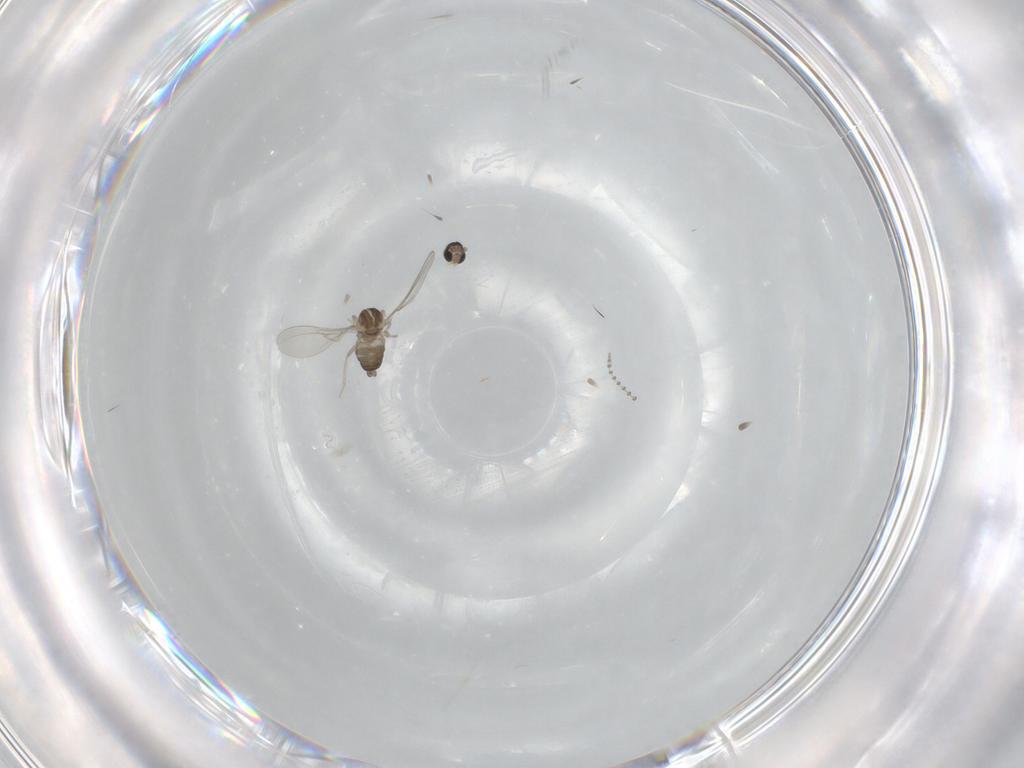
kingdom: Animalia
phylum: Arthropoda
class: Insecta
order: Diptera
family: Cecidomyiidae
